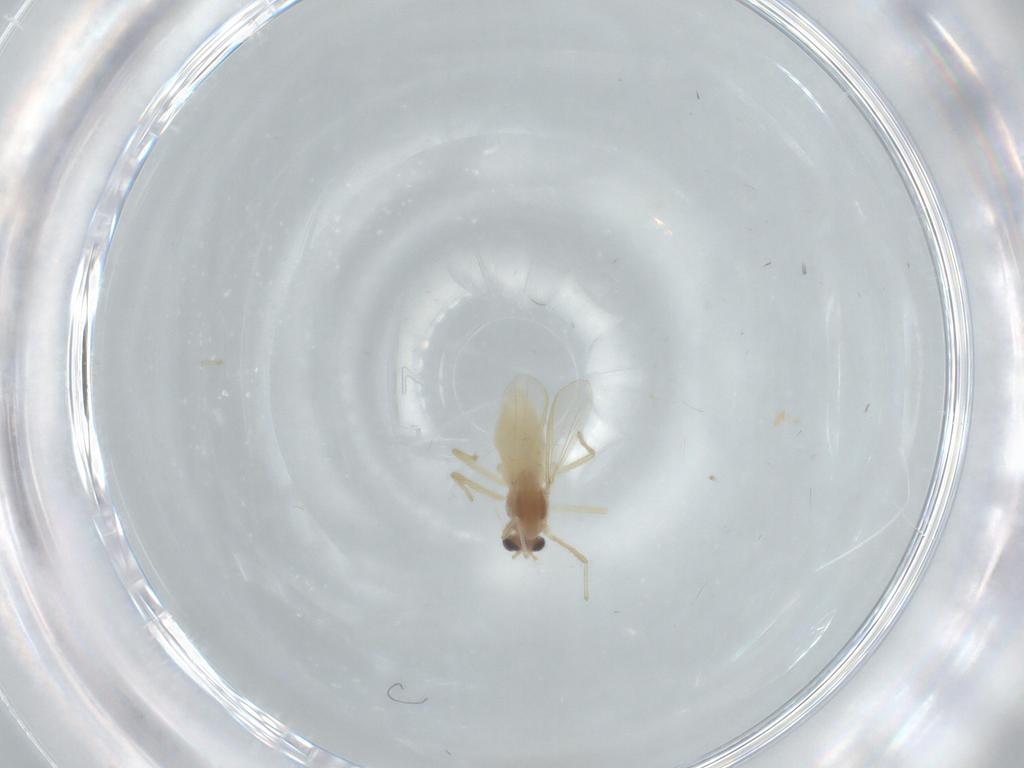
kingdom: Animalia
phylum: Arthropoda
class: Insecta
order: Diptera
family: Chironomidae
